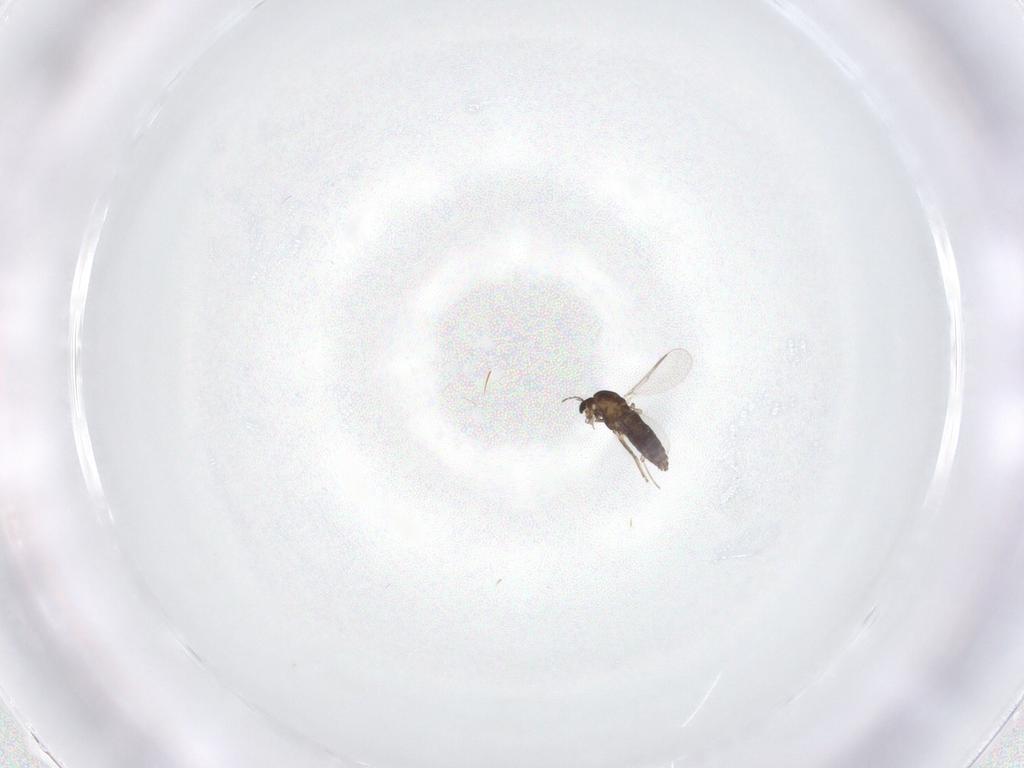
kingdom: Animalia
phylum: Arthropoda
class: Insecta
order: Diptera
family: Chironomidae
